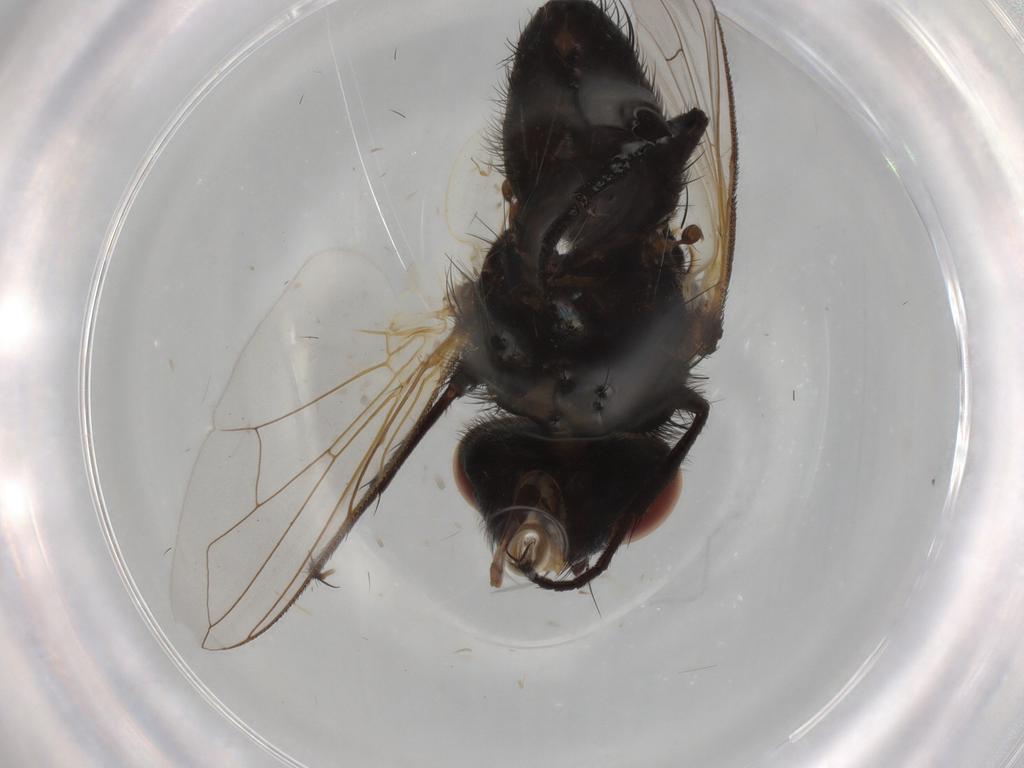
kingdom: Animalia
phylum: Arthropoda
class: Insecta
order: Diptera
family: Tachinidae
